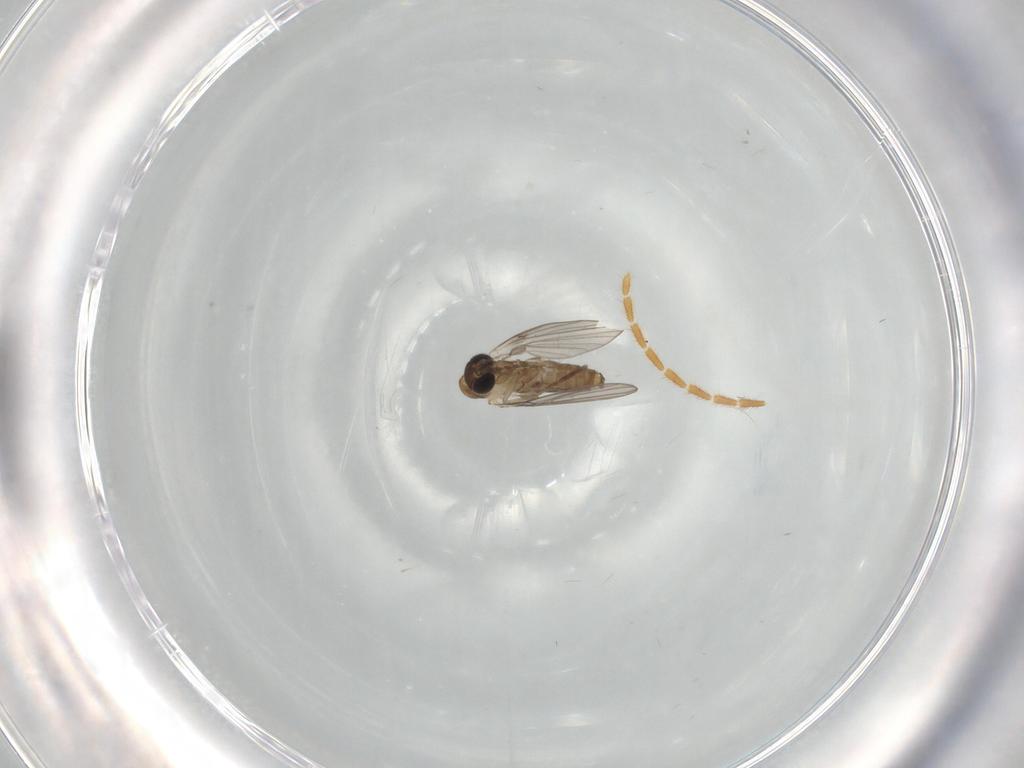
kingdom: Animalia
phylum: Arthropoda
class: Insecta
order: Diptera
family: Psychodidae
